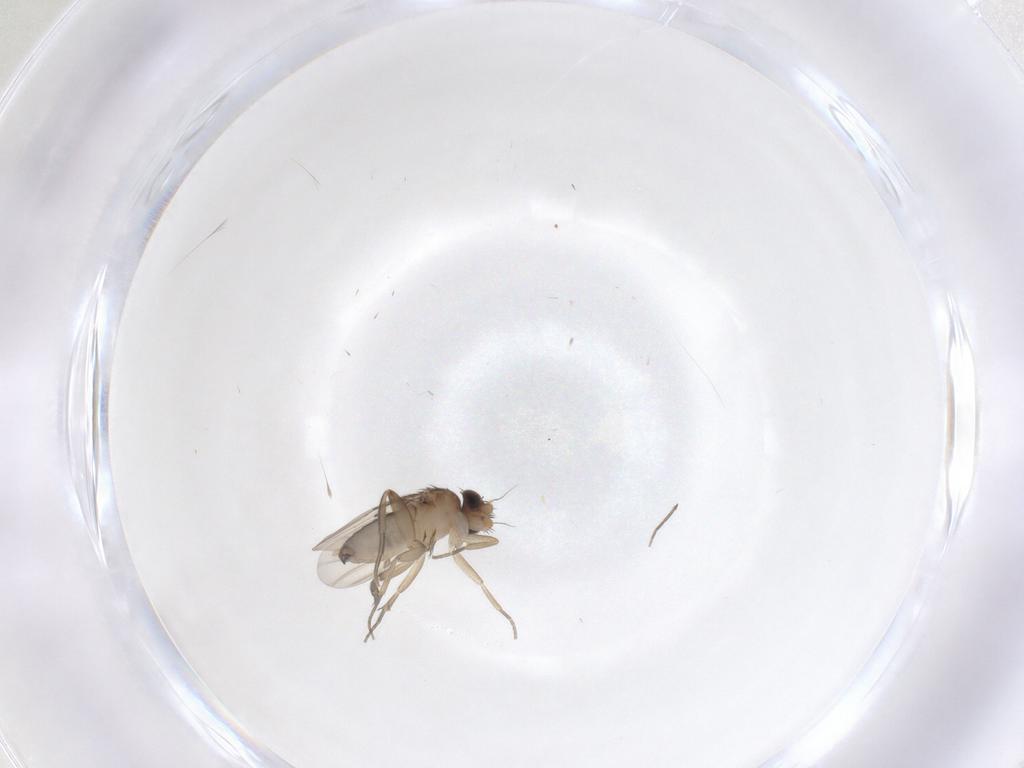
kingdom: Animalia
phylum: Arthropoda
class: Insecta
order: Diptera
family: Phoridae
